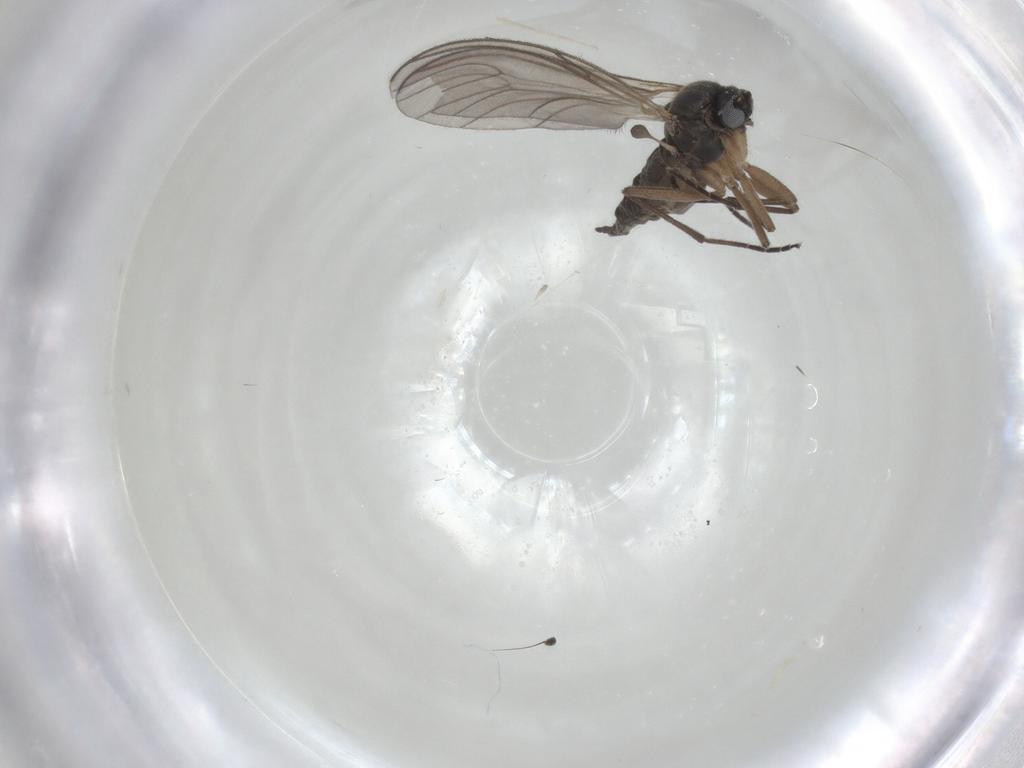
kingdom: Animalia
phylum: Arthropoda
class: Insecta
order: Diptera
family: Sciaridae
